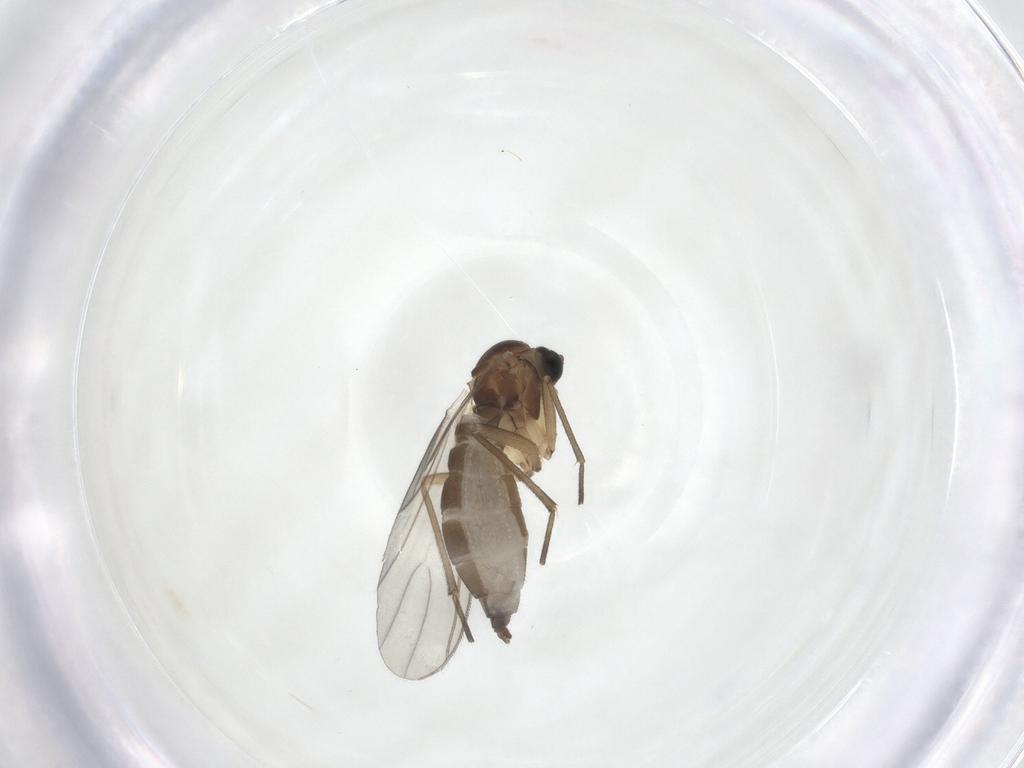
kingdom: Animalia
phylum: Arthropoda
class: Insecta
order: Diptera
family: Sciaridae
